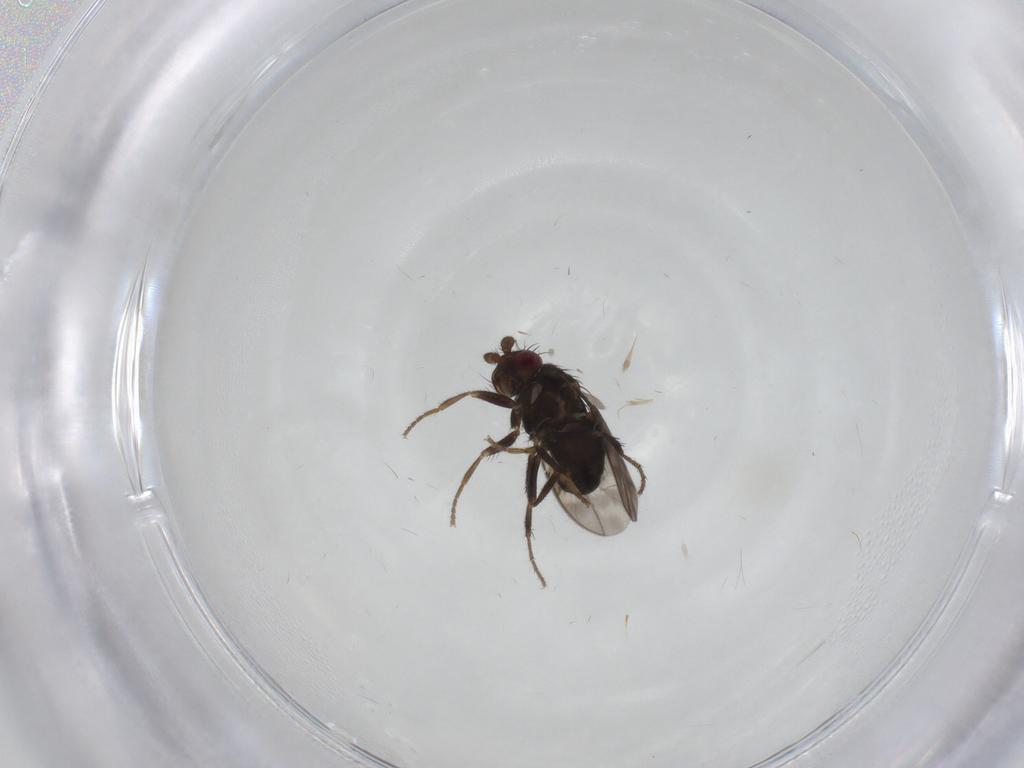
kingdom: Animalia
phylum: Arthropoda
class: Insecta
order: Diptera
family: Sphaeroceridae
